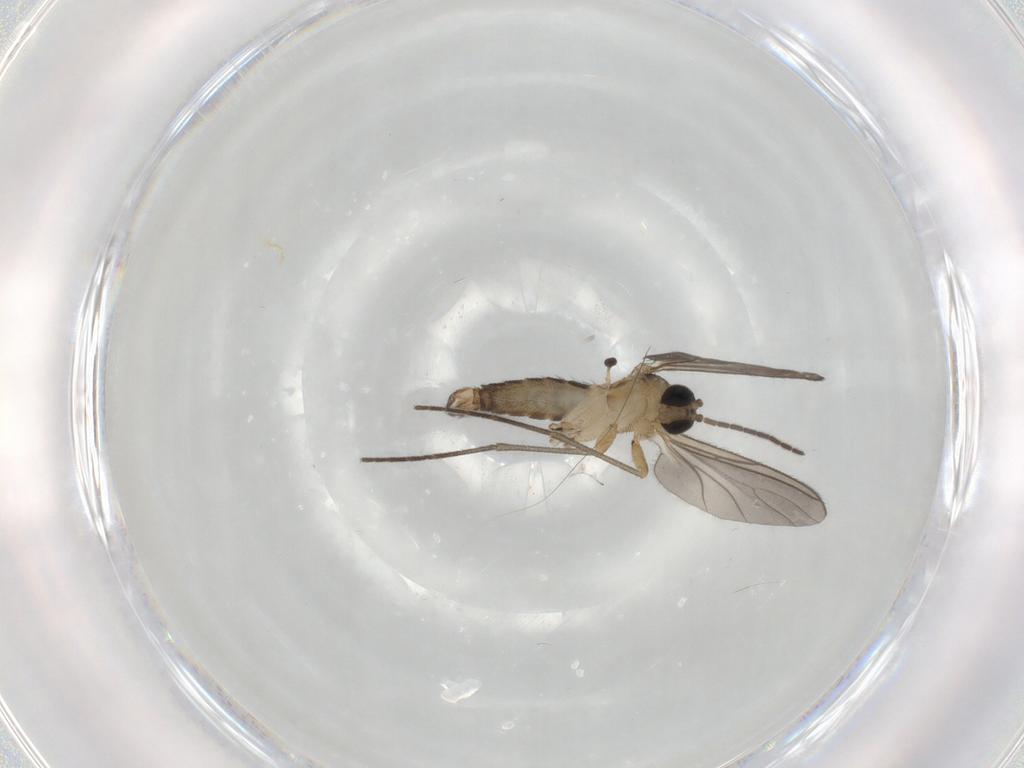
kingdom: Animalia
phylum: Arthropoda
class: Insecta
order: Diptera
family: Sciaridae
